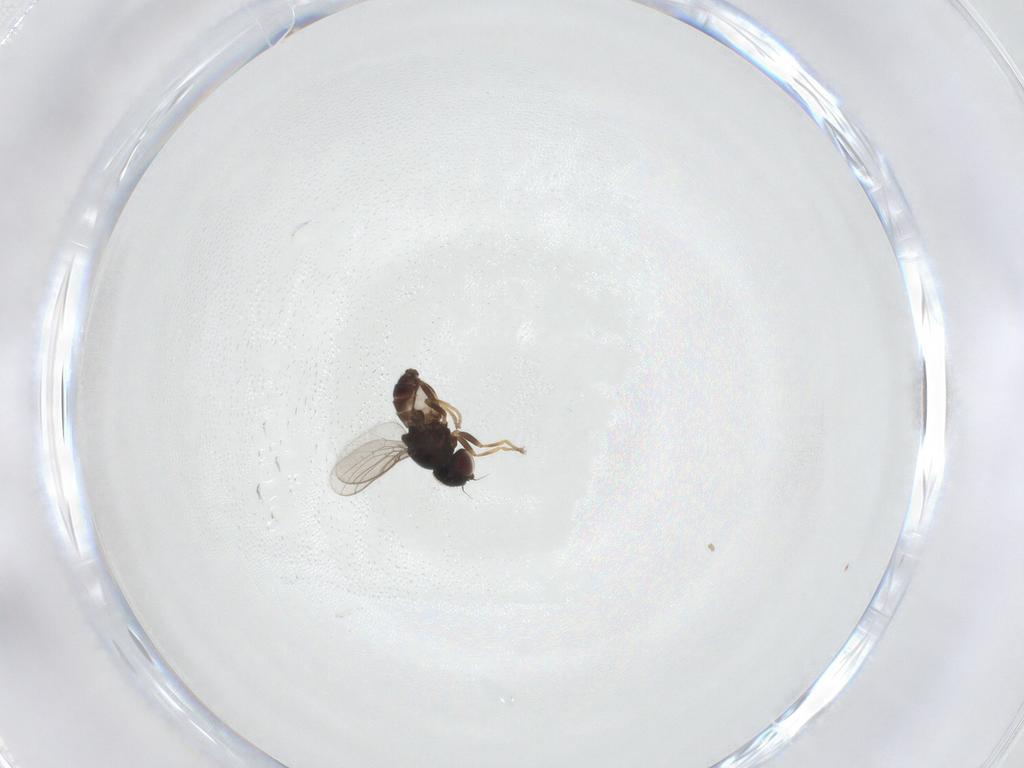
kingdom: Animalia
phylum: Arthropoda
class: Insecta
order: Diptera
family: Chloropidae
